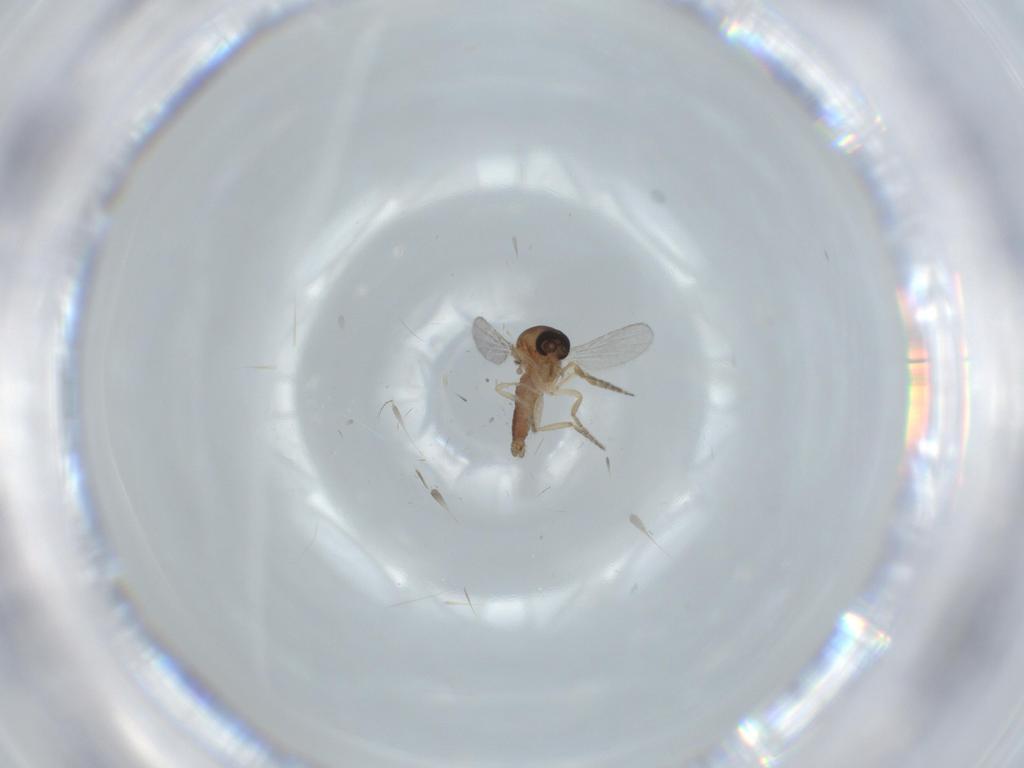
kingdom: Animalia
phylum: Arthropoda
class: Insecta
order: Diptera
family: Ceratopogonidae
